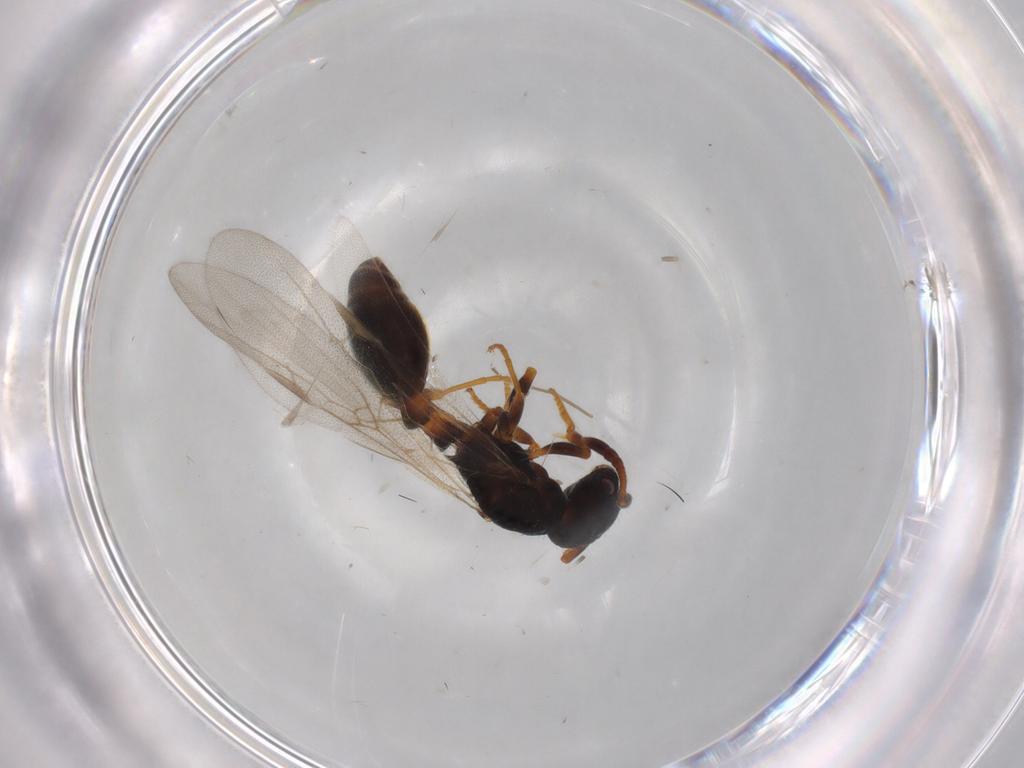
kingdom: Animalia
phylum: Arthropoda
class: Insecta
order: Hymenoptera
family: Formicidae
